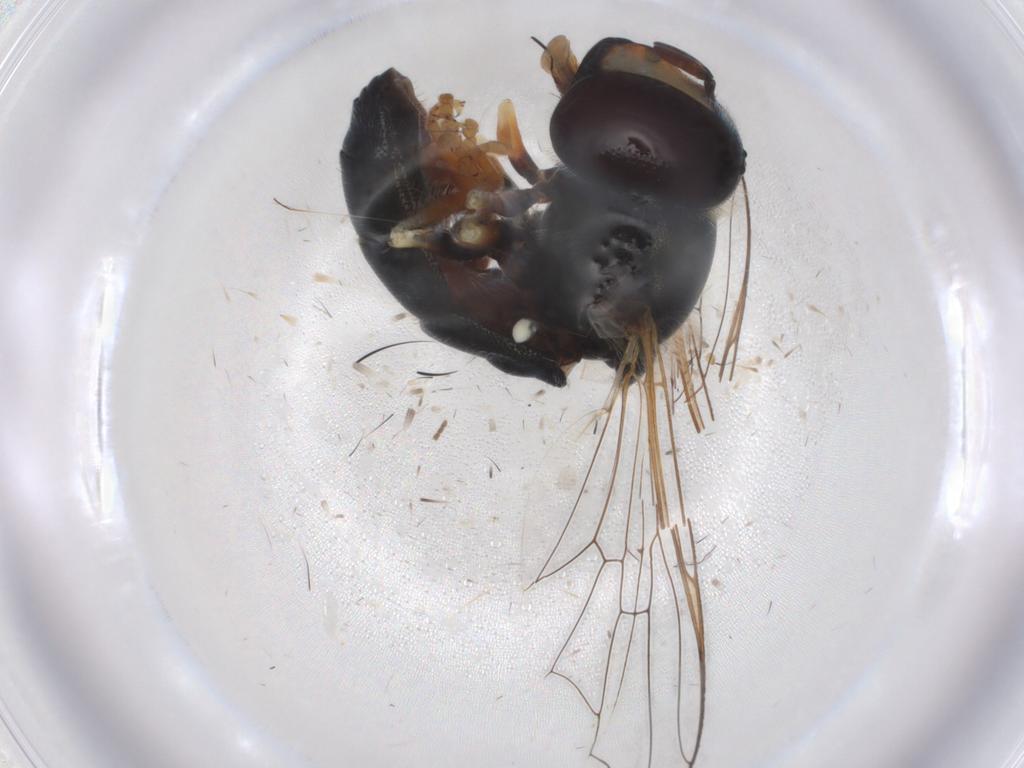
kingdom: Animalia
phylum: Arthropoda
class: Insecta
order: Diptera
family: Syrphidae
